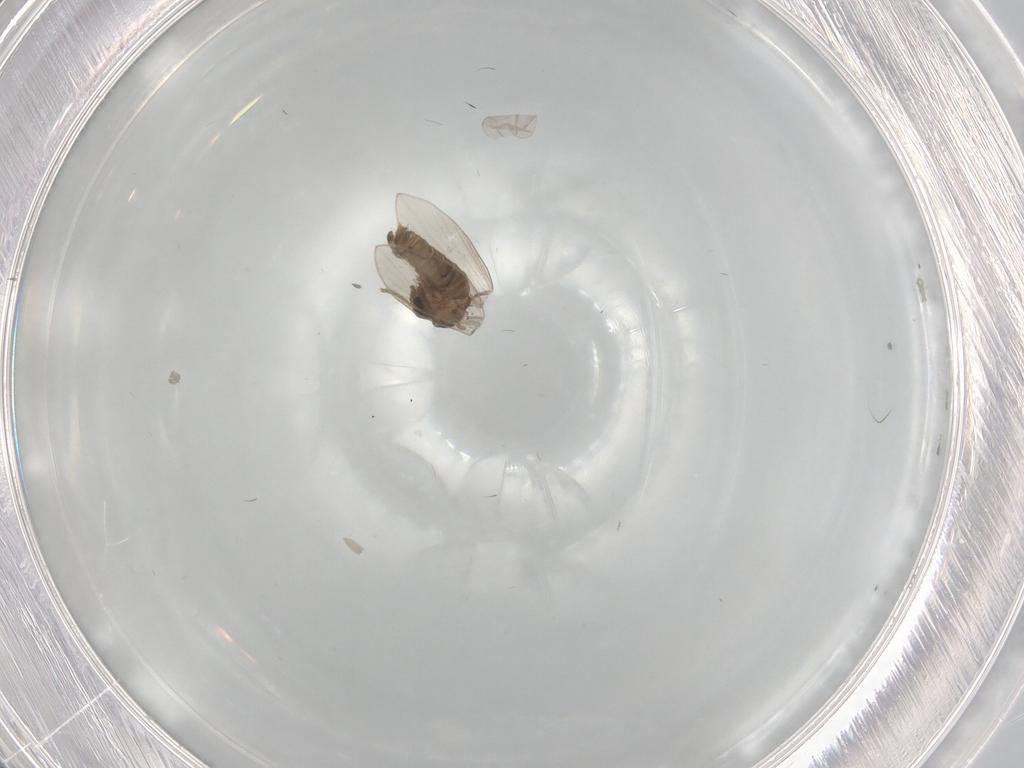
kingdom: Animalia
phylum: Arthropoda
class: Insecta
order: Diptera
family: Psychodidae
